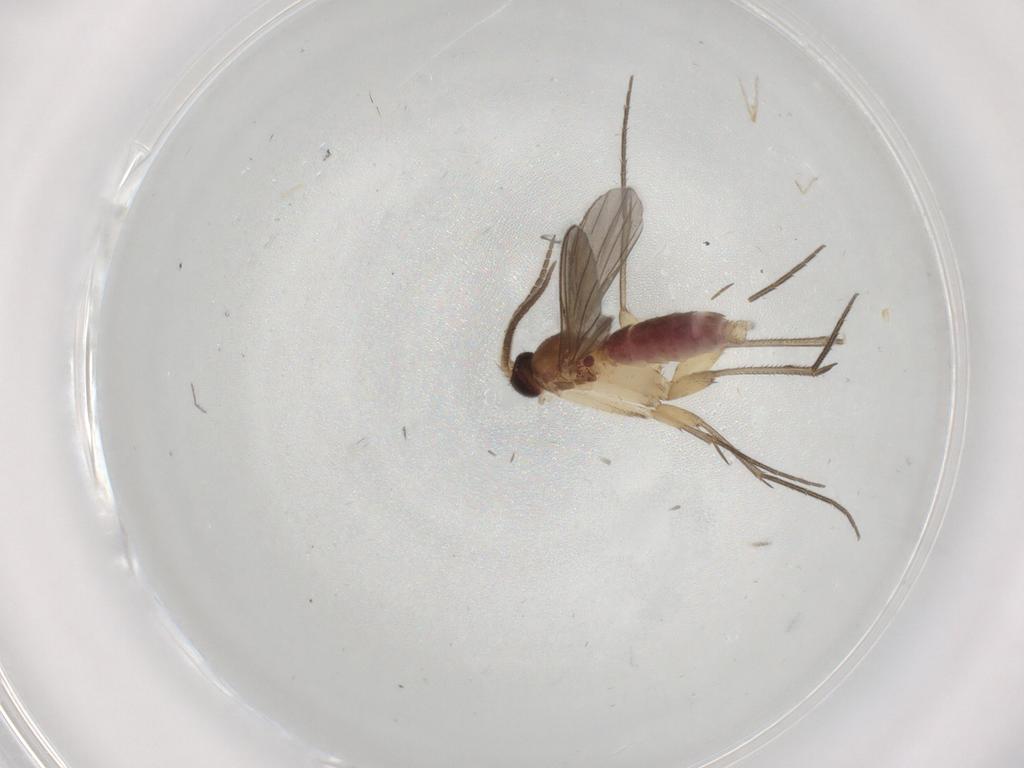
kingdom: Animalia
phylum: Arthropoda
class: Insecta
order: Diptera
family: Mycetophilidae
